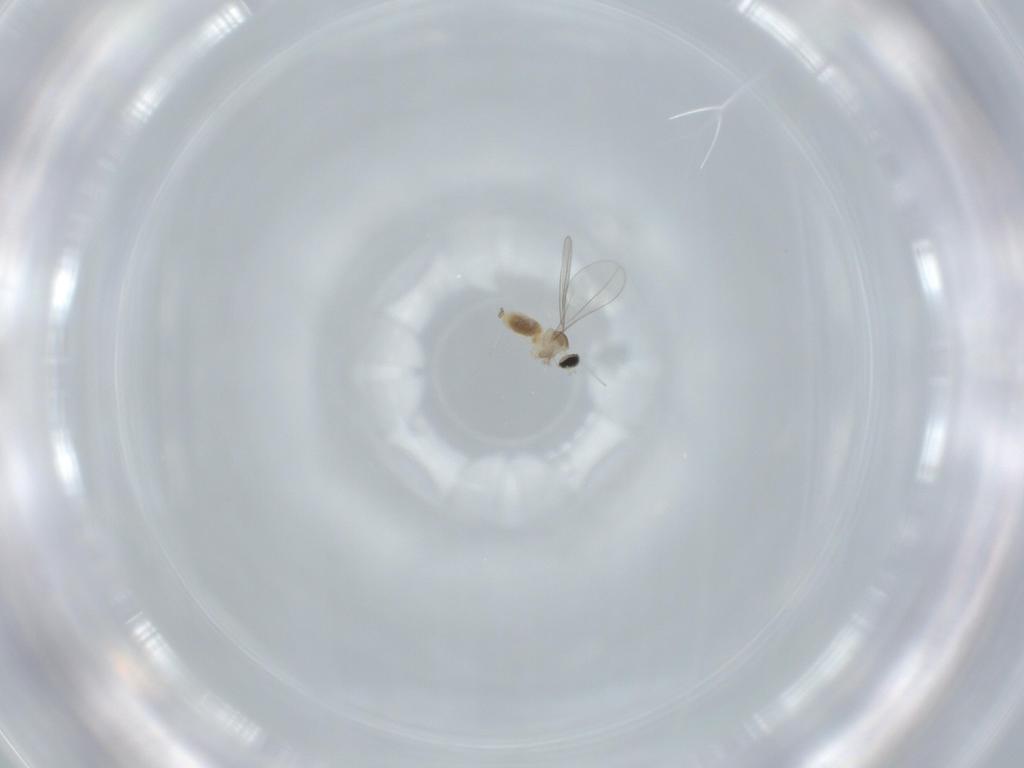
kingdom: Animalia
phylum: Arthropoda
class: Insecta
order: Diptera
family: Cecidomyiidae
